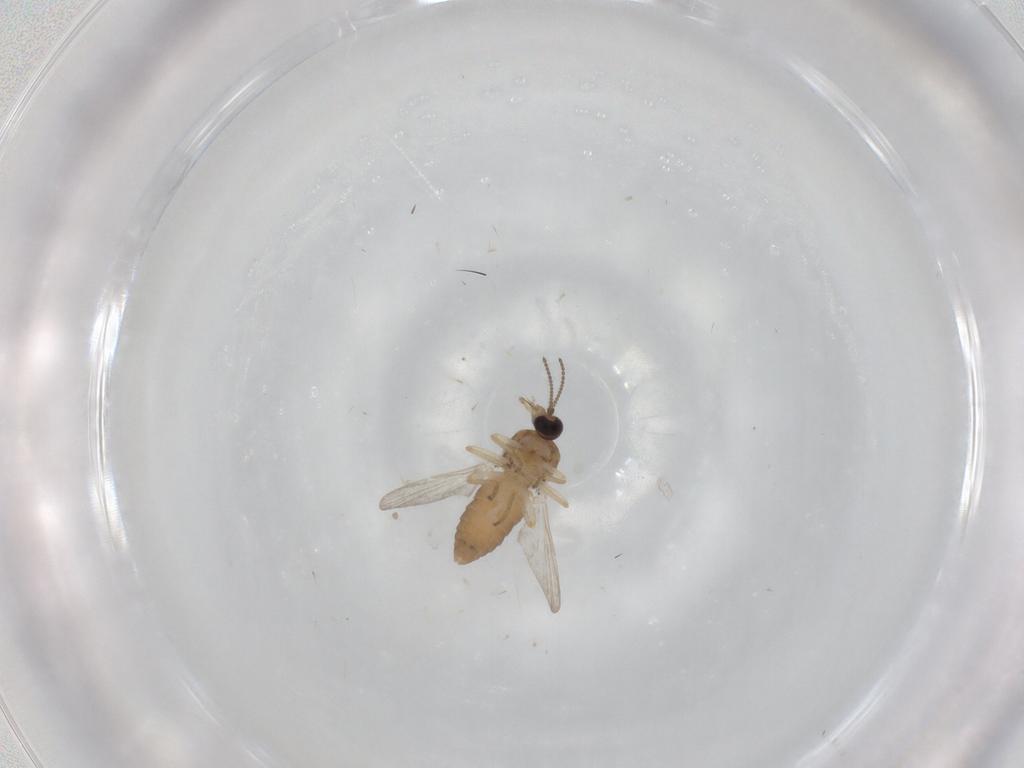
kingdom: Animalia
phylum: Arthropoda
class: Insecta
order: Diptera
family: Ceratopogonidae
